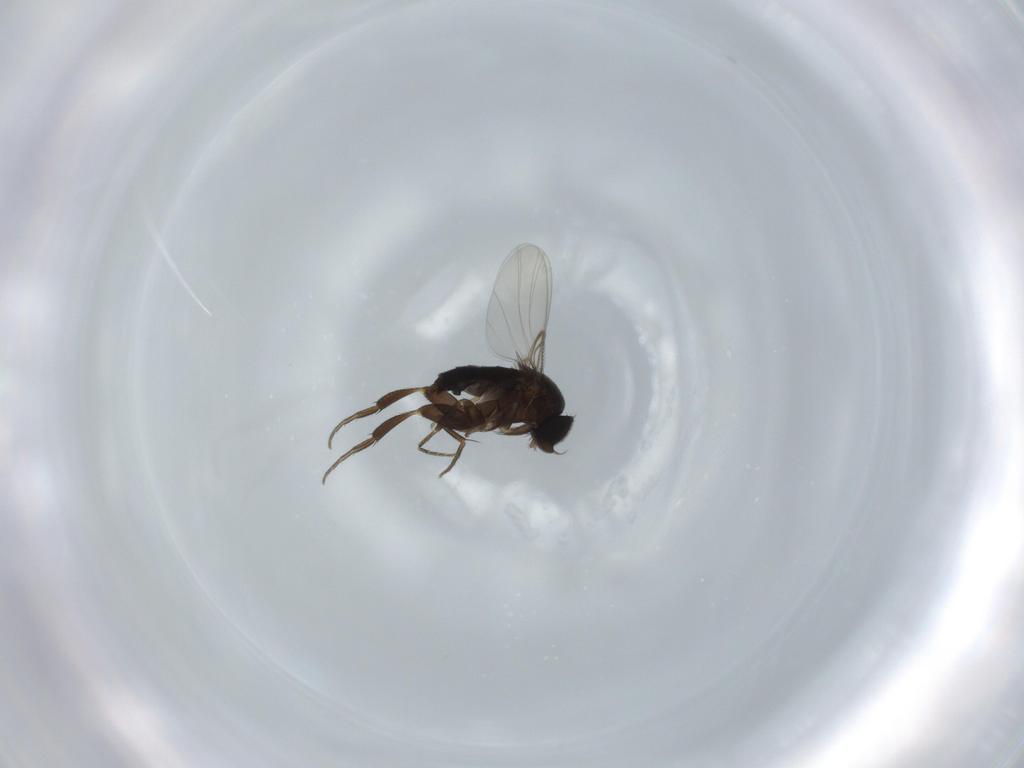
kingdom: Animalia
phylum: Arthropoda
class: Insecta
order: Diptera
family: Phoridae
